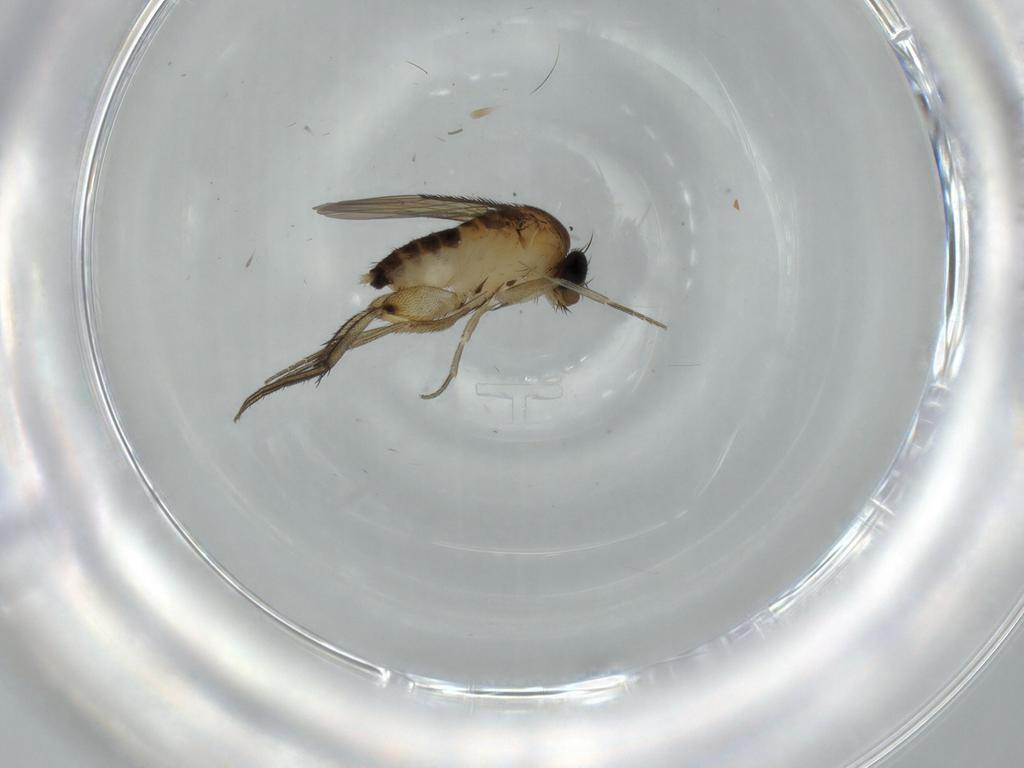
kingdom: Animalia
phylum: Arthropoda
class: Insecta
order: Diptera
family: Phoridae
